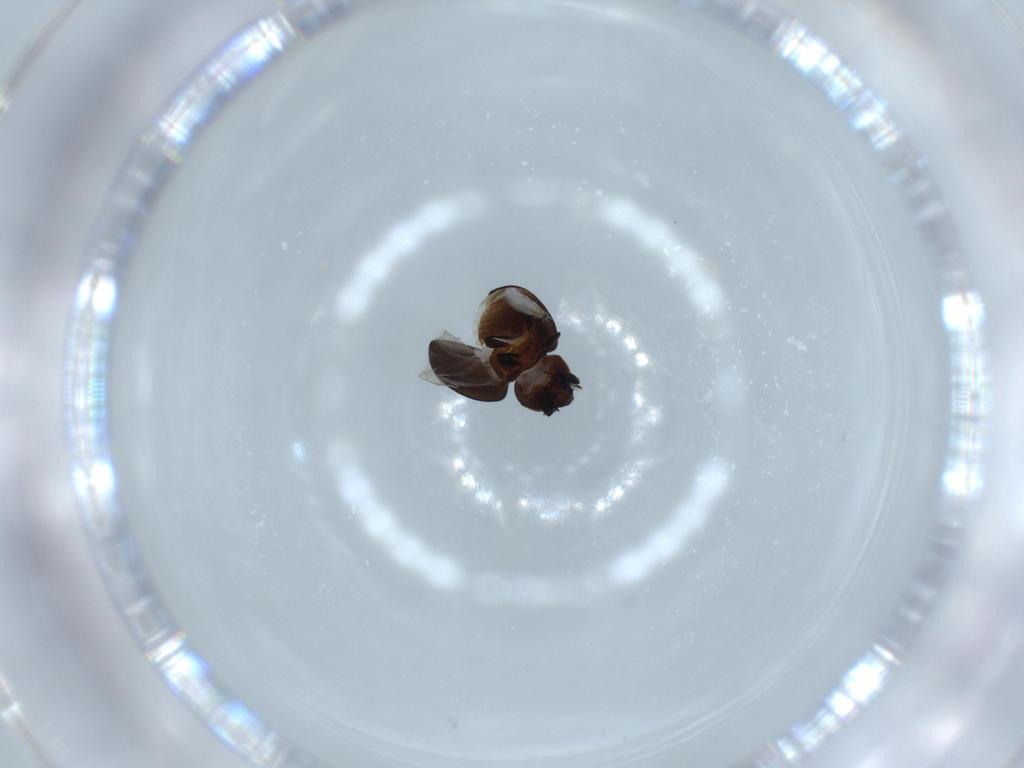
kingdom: Animalia
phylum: Arthropoda
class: Insecta
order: Coleoptera
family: Coccinellidae
